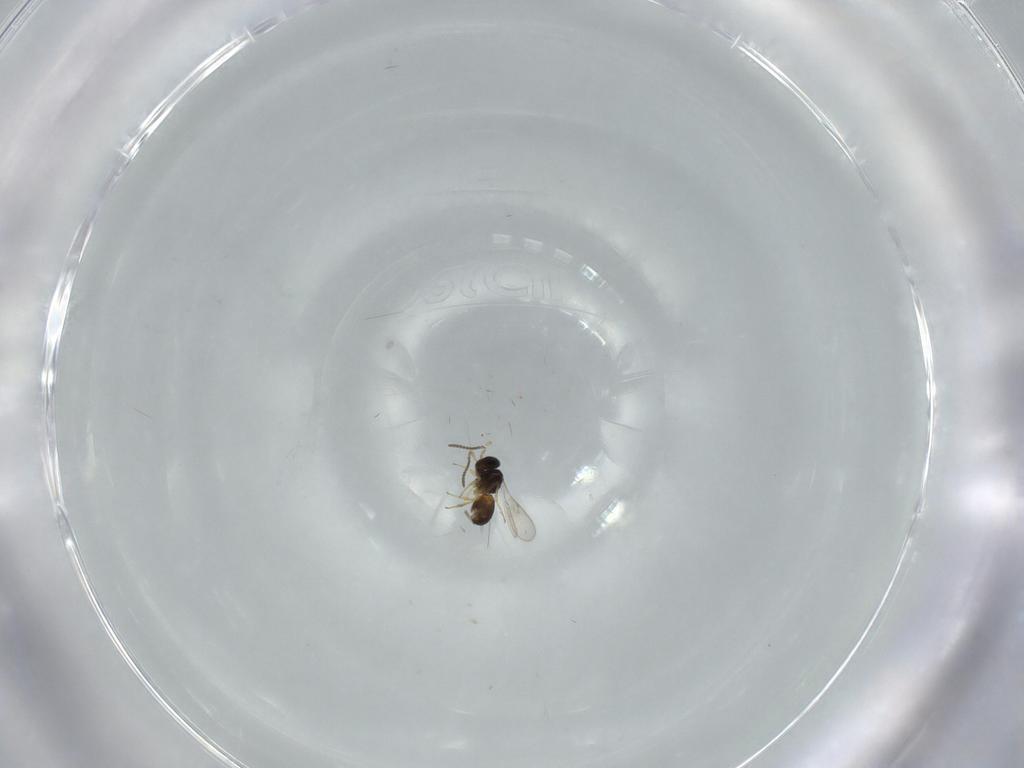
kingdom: Animalia
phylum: Arthropoda
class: Insecta
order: Hymenoptera
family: Scelionidae
